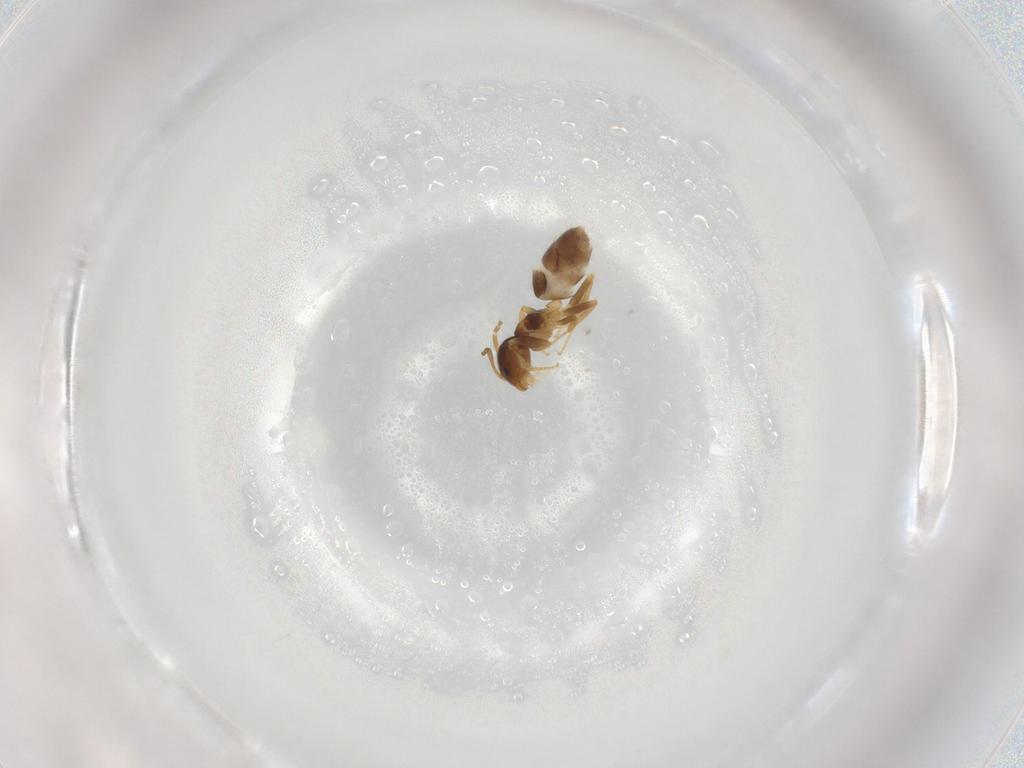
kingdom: Animalia
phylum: Arthropoda
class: Insecta
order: Hymenoptera
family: Formicidae
